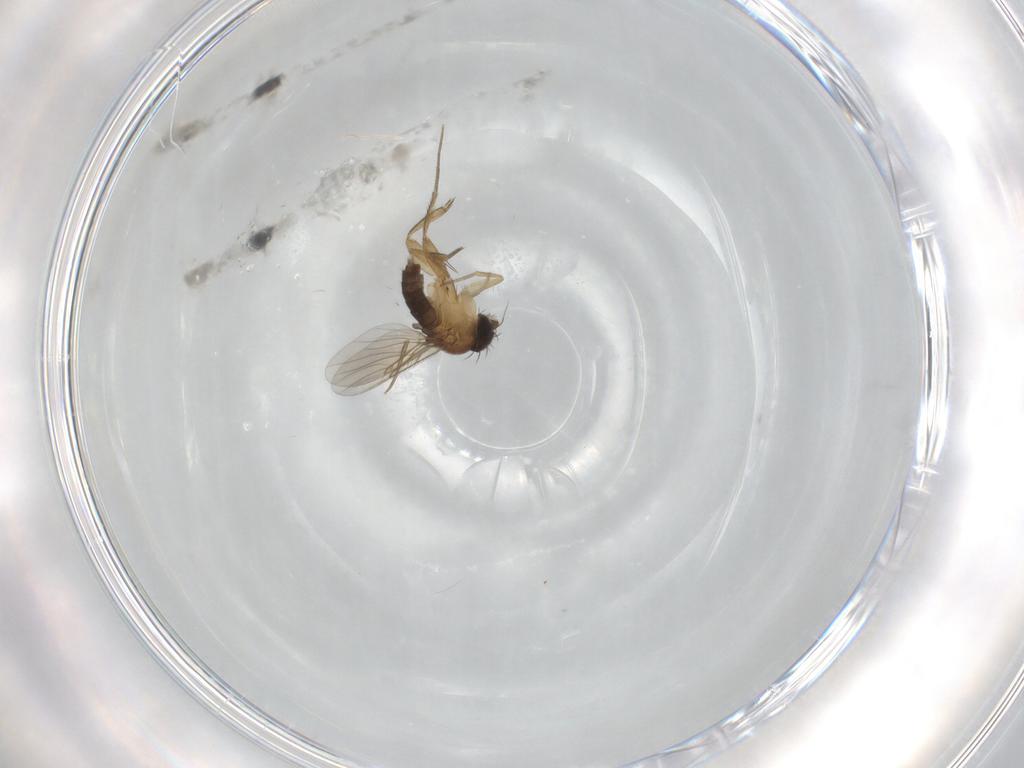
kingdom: Animalia
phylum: Arthropoda
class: Insecta
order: Diptera
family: Phoridae
